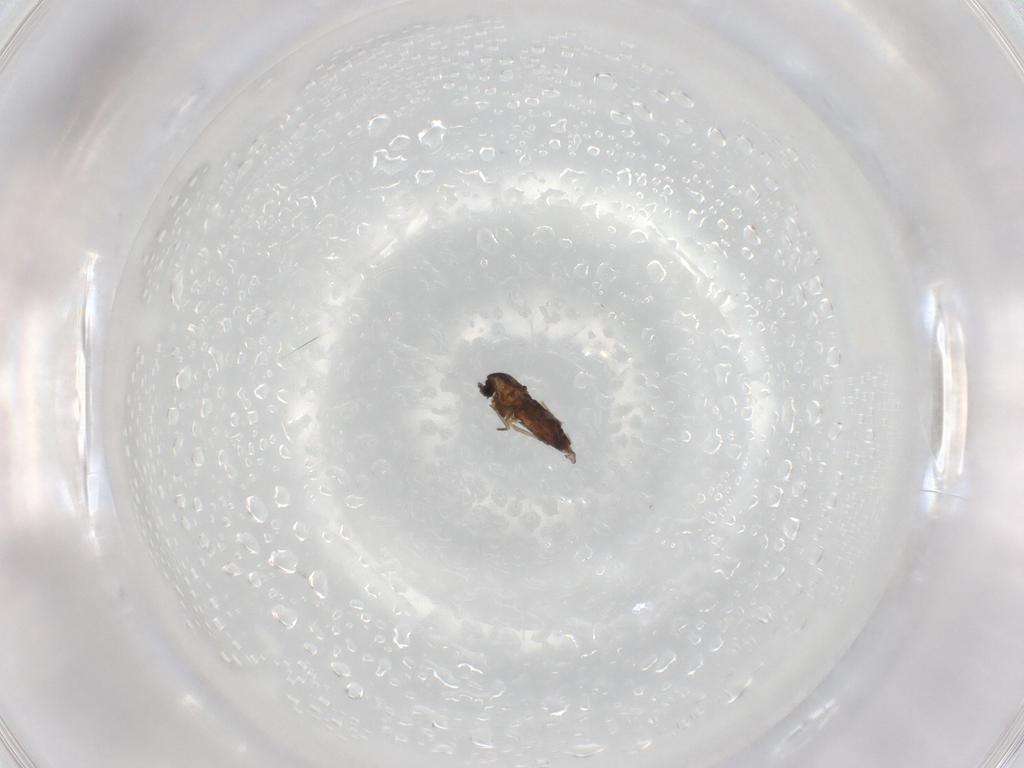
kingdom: Animalia
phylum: Arthropoda
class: Insecta
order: Diptera
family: Chironomidae
